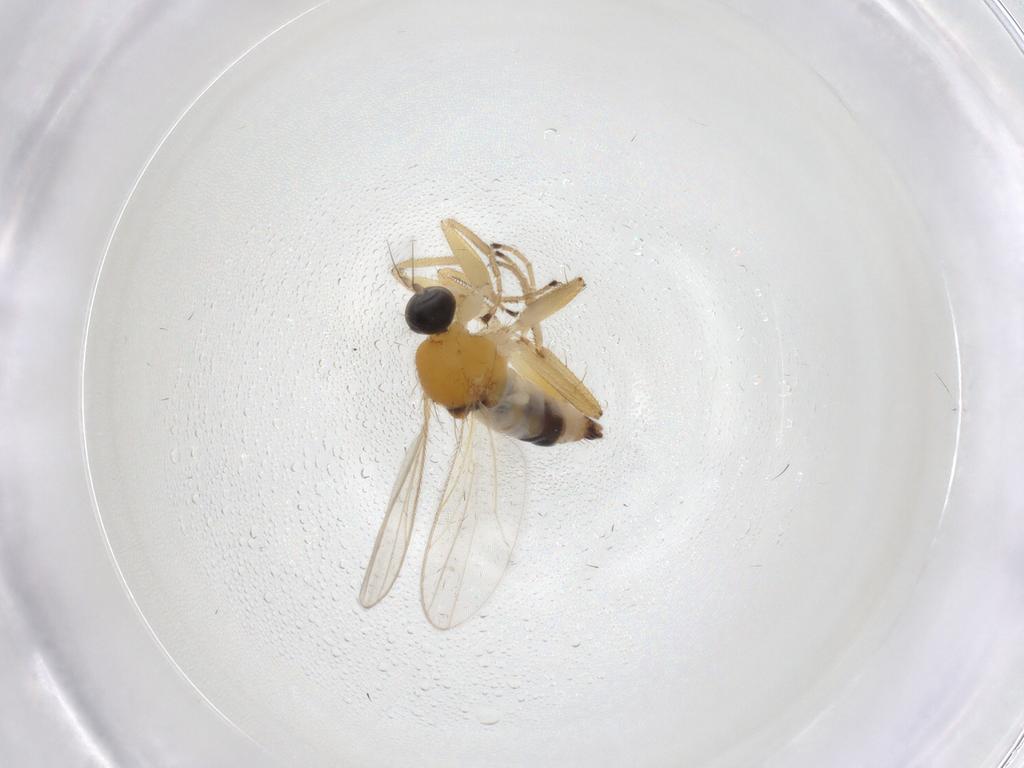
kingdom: Animalia
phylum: Arthropoda
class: Insecta
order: Diptera
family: Hybotidae
